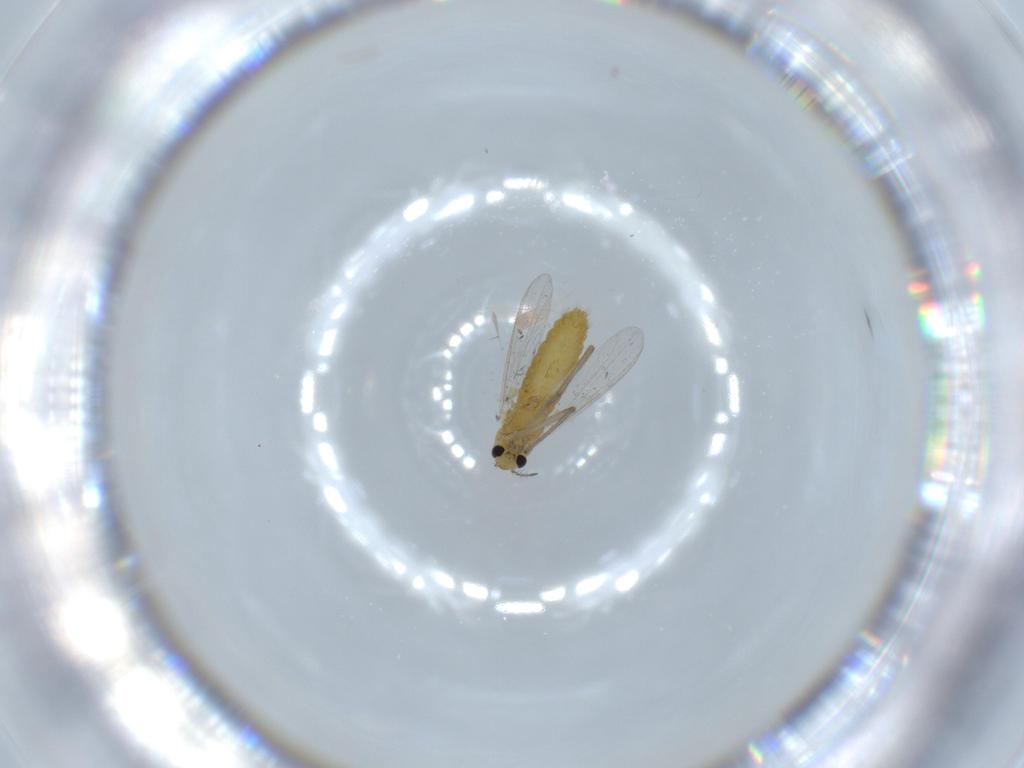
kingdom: Animalia
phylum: Arthropoda
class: Insecta
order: Diptera
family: Chironomidae
